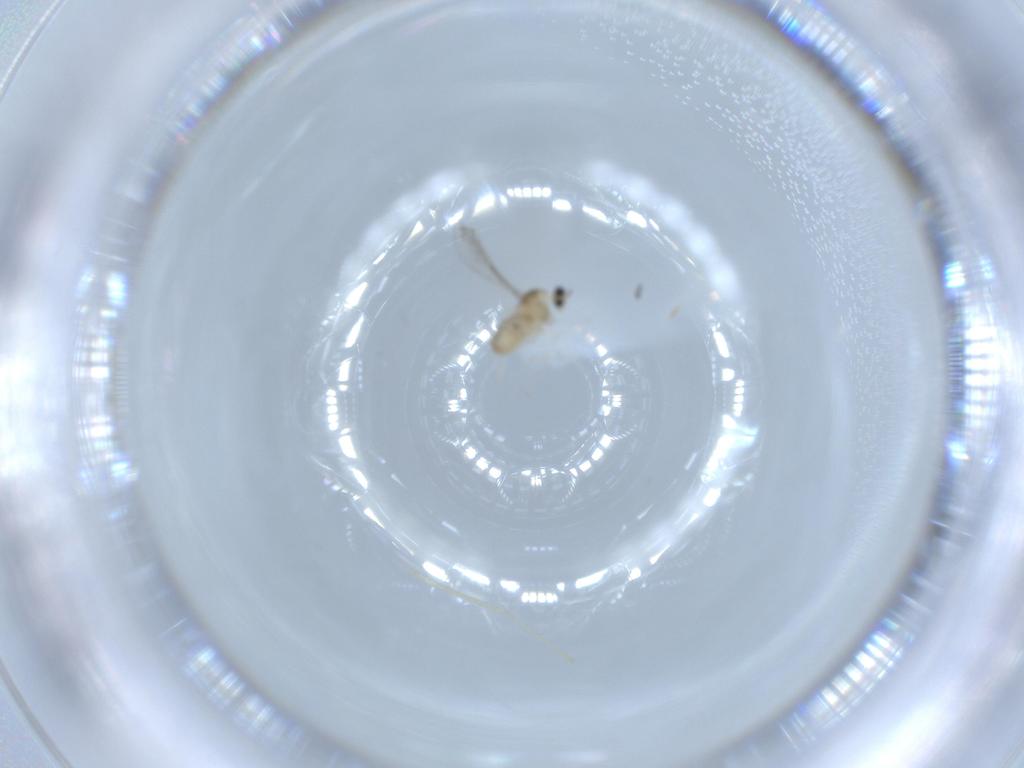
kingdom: Animalia
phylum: Arthropoda
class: Insecta
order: Diptera
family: Cecidomyiidae
